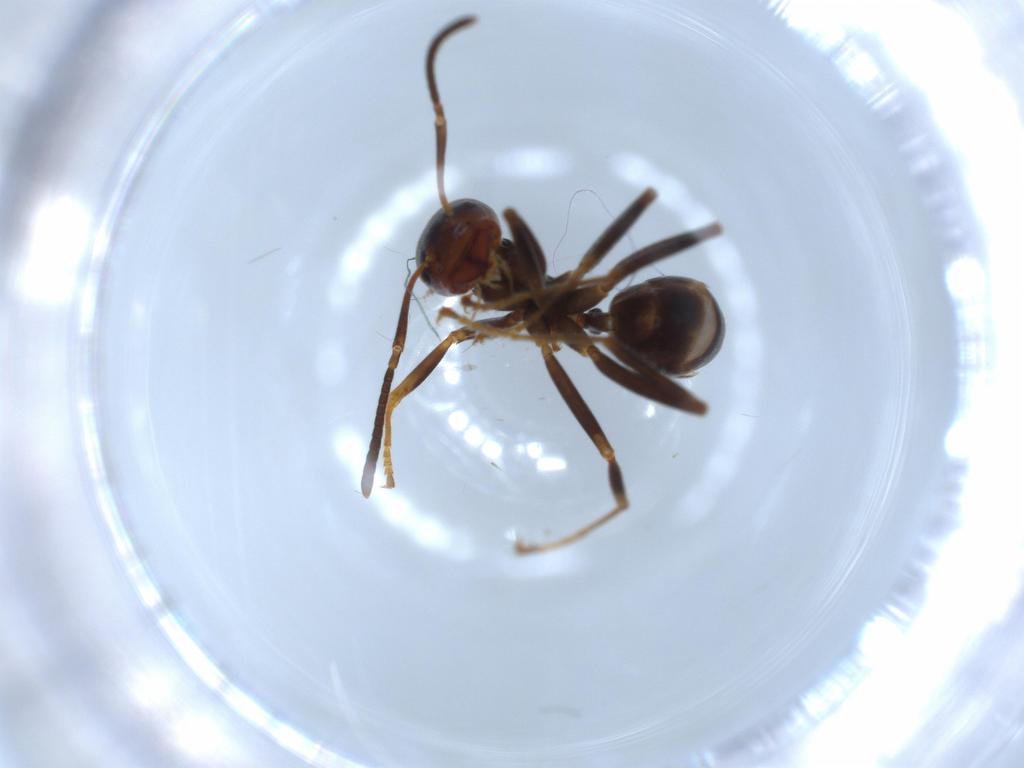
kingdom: Animalia
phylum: Arthropoda
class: Insecta
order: Hymenoptera
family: Formicidae
